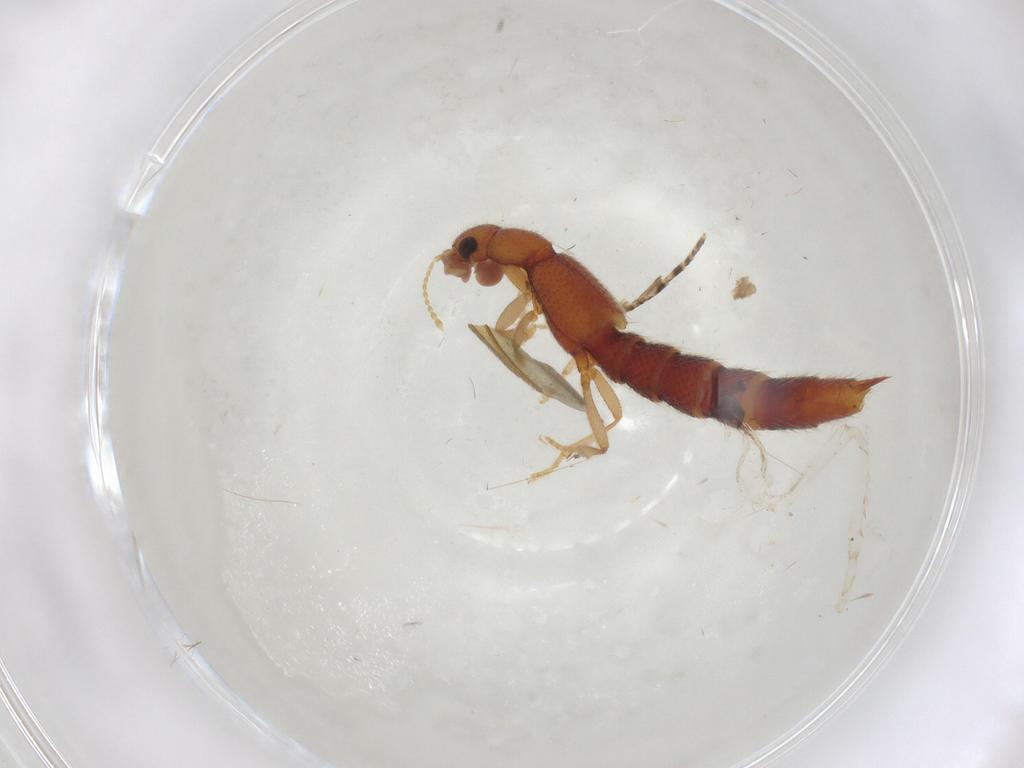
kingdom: Animalia
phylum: Arthropoda
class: Insecta
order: Coleoptera
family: Staphylinidae
